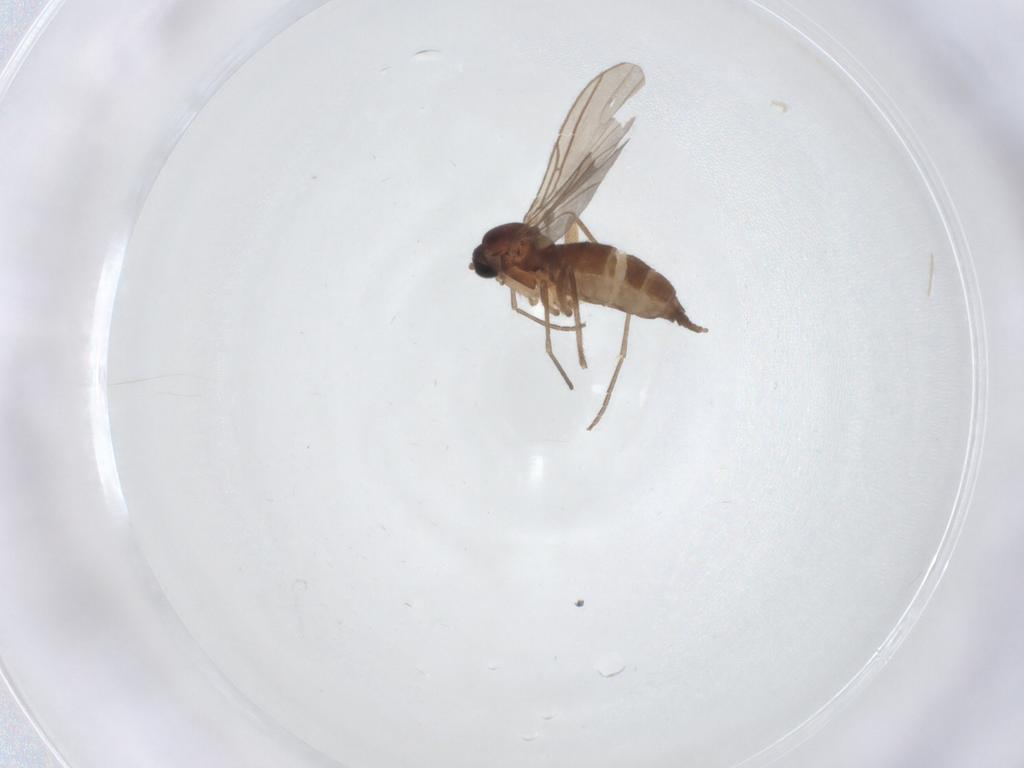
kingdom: Animalia
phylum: Arthropoda
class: Insecta
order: Diptera
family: Sciaridae
